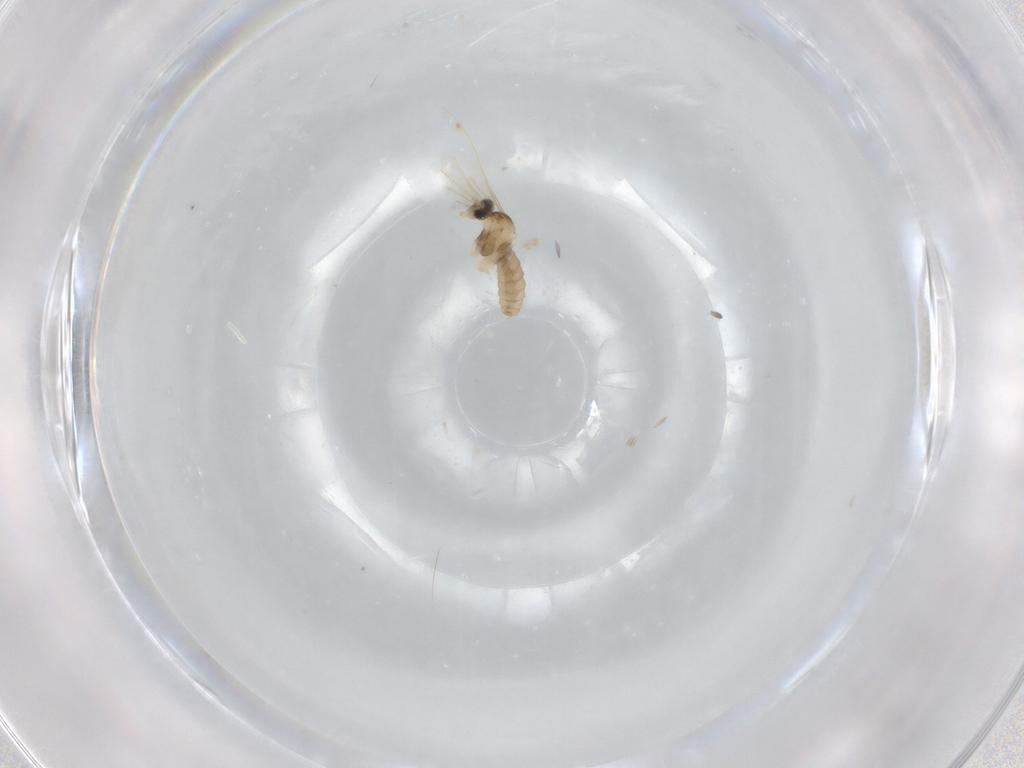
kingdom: Animalia
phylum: Arthropoda
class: Insecta
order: Diptera
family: Cecidomyiidae
